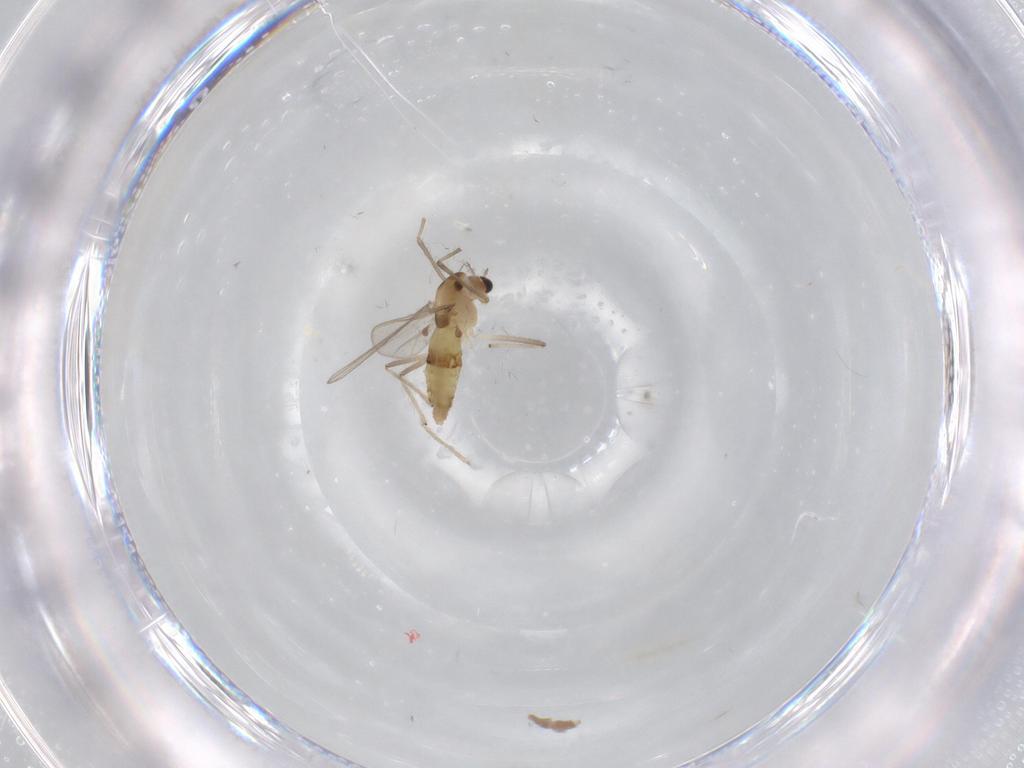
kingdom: Animalia
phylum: Arthropoda
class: Insecta
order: Diptera
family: Chironomidae
